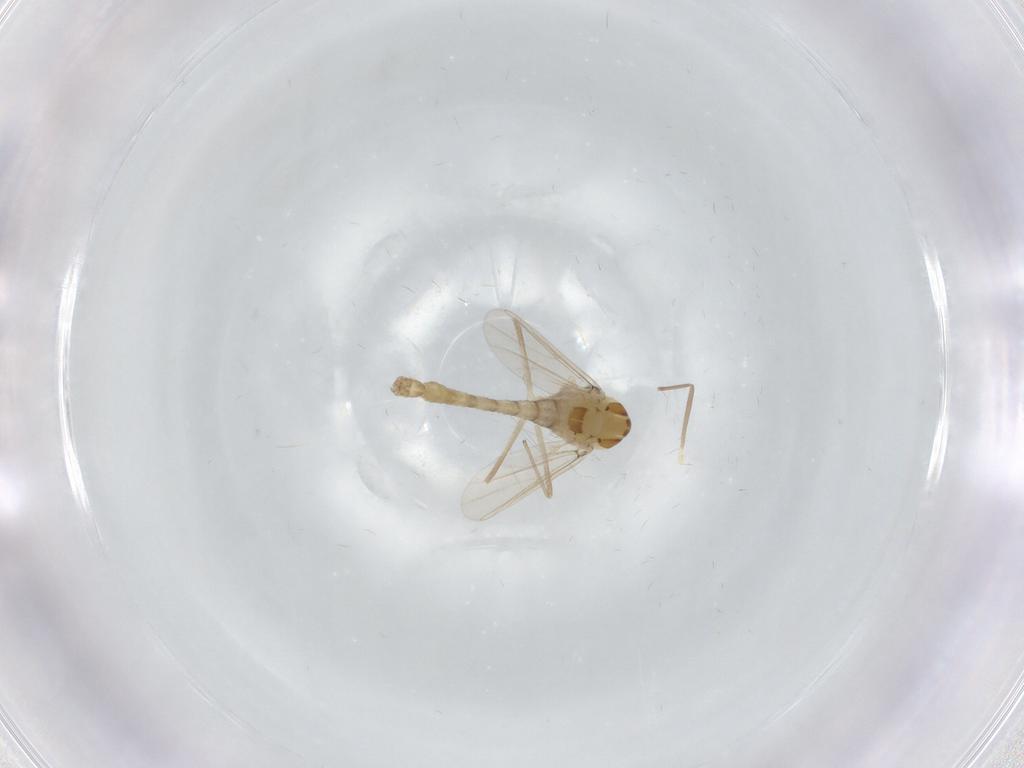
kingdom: Animalia
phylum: Arthropoda
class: Insecta
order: Diptera
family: Chironomidae
